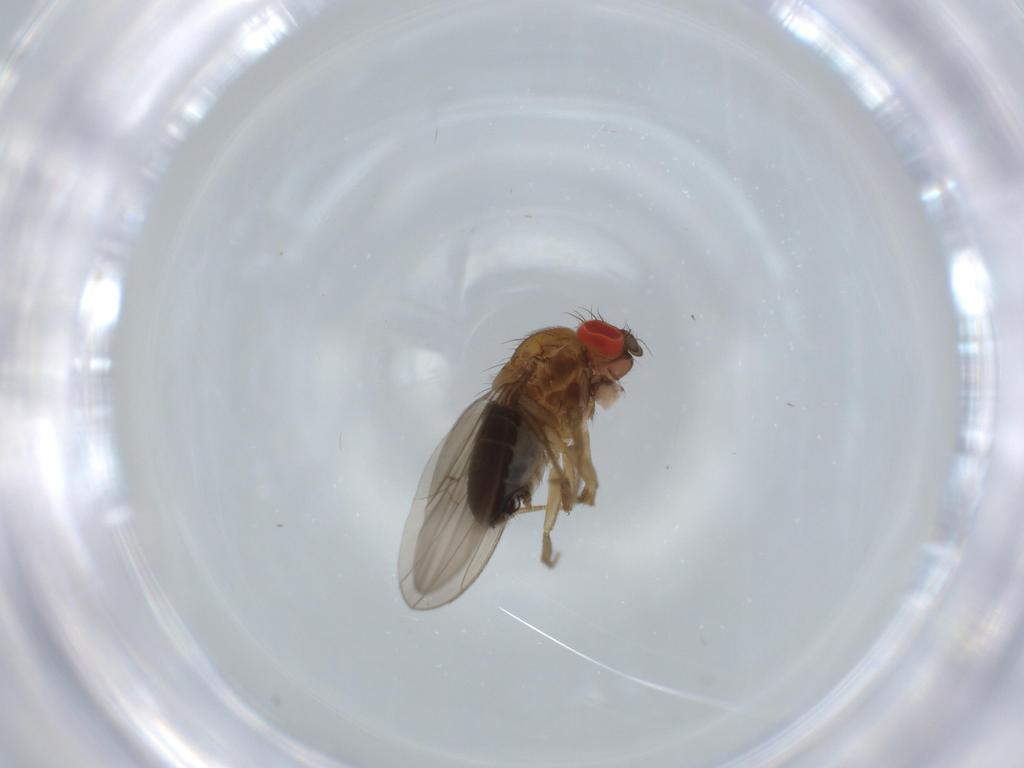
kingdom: Animalia
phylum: Arthropoda
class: Insecta
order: Diptera
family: Drosophilidae
